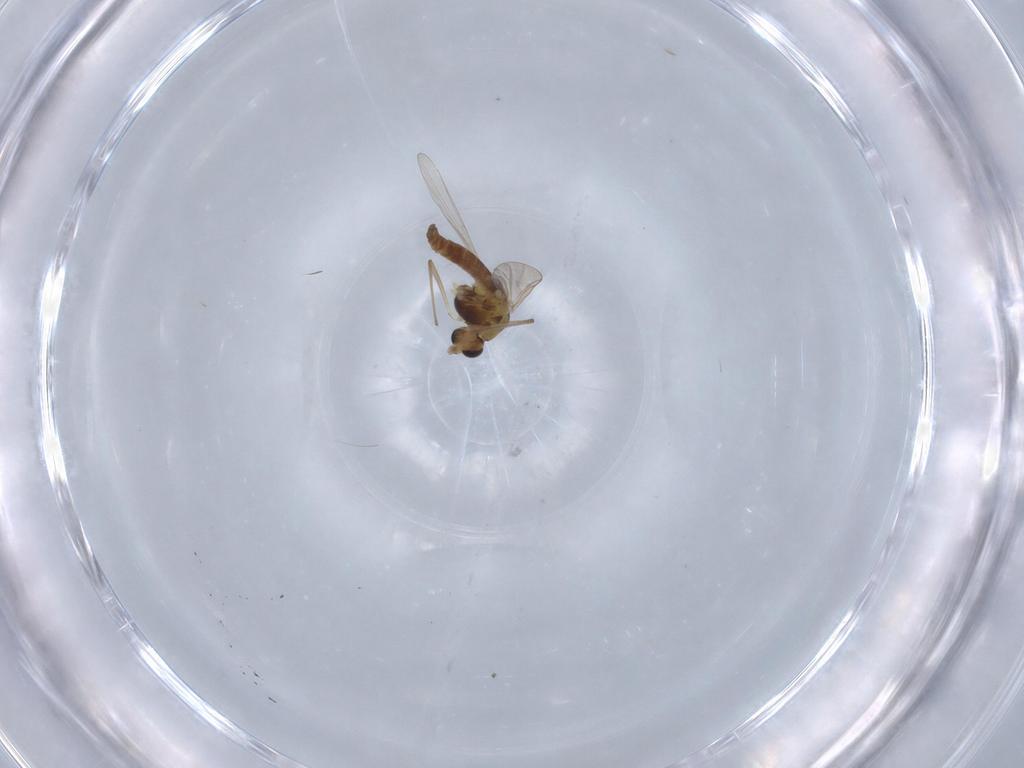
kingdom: Animalia
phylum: Arthropoda
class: Insecta
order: Diptera
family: Chironomidae
